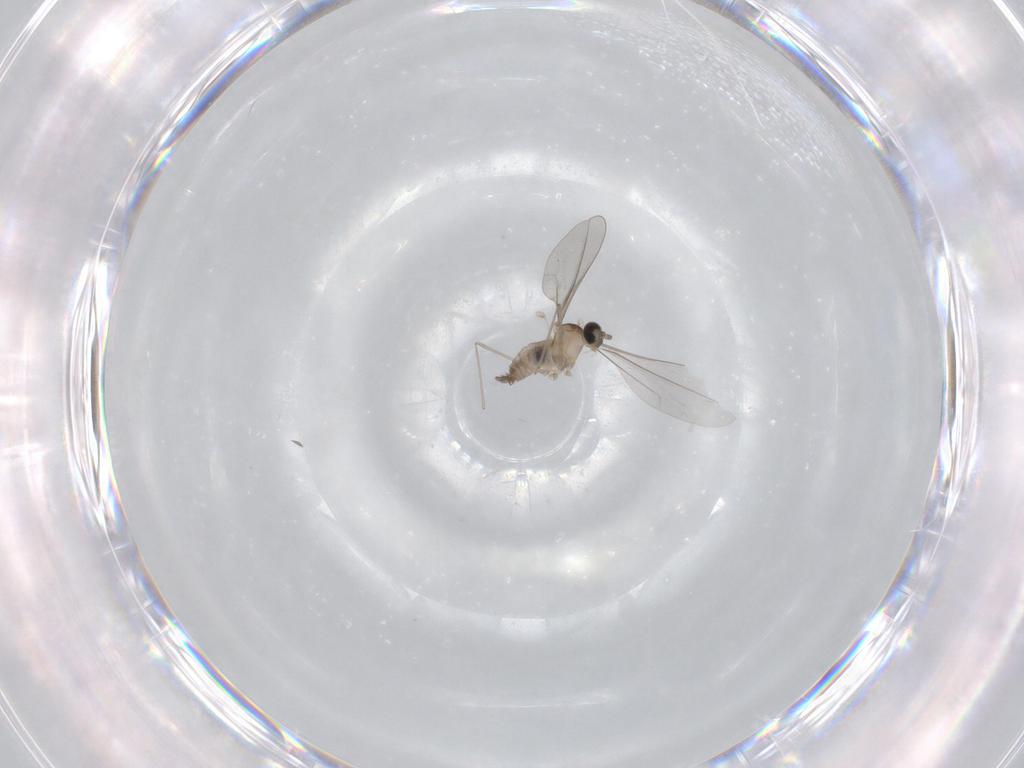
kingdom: Animalia
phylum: Arthropoda
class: Insecta
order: Diptera
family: Cecidomyiidae
